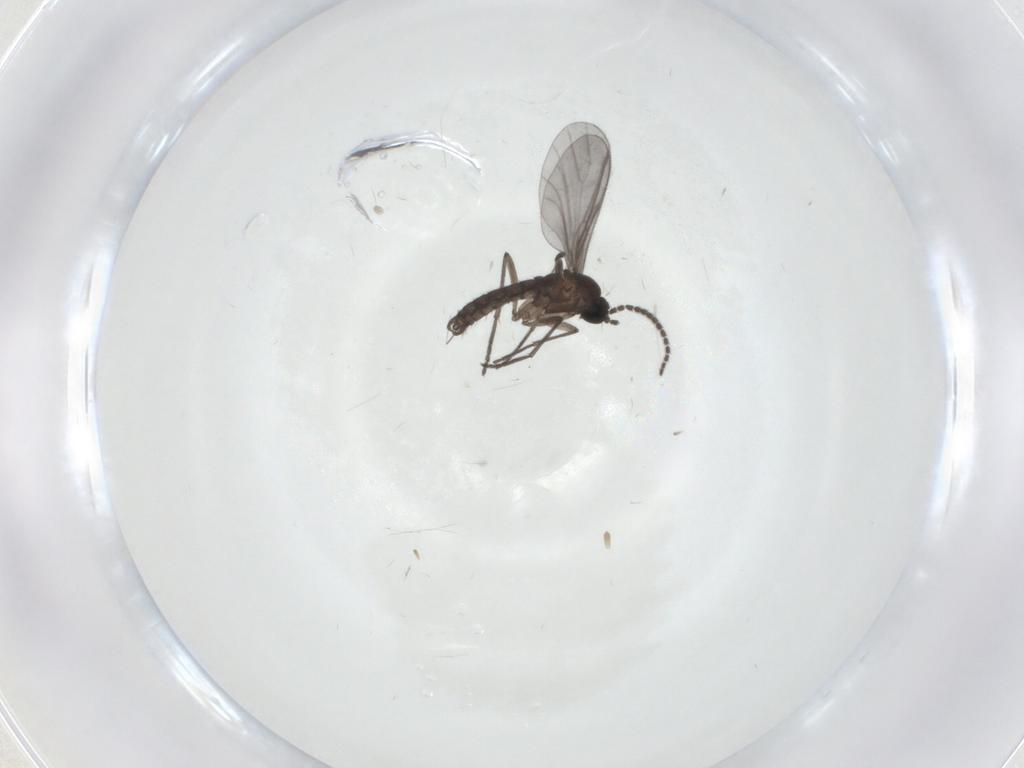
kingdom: Animalia
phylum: Arthropoda
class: Insecta
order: Diptera
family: Sciaridae
